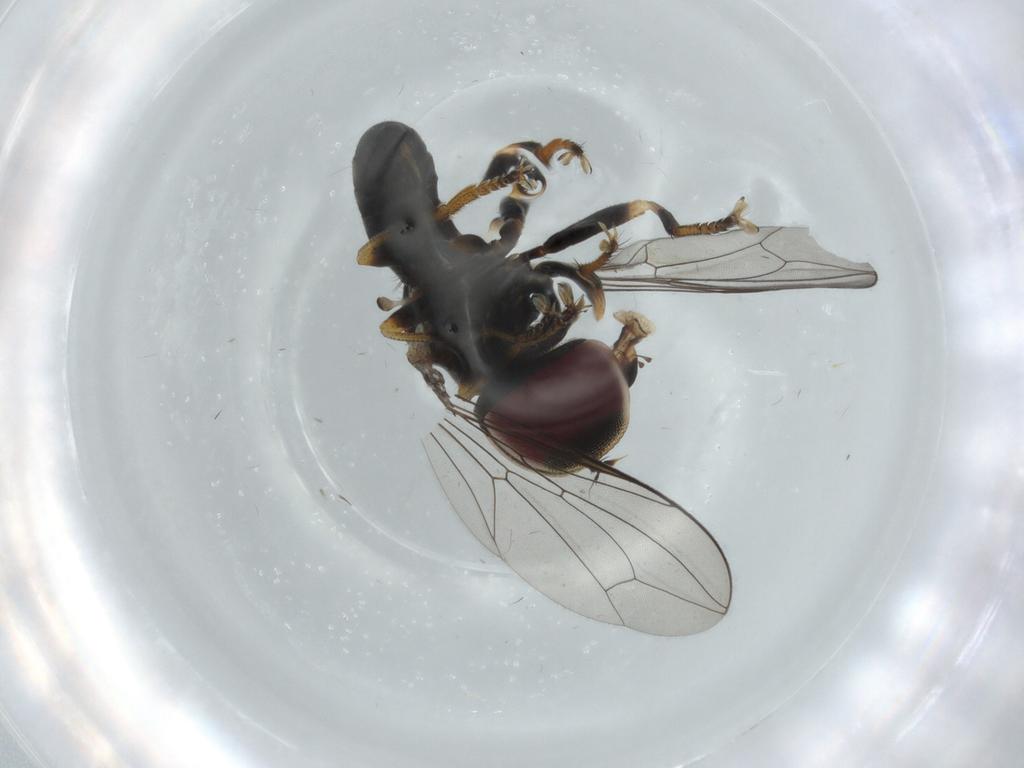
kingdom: Animalia
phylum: Arthropoda
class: Insecta
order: Diptera
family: Pipunculidae
